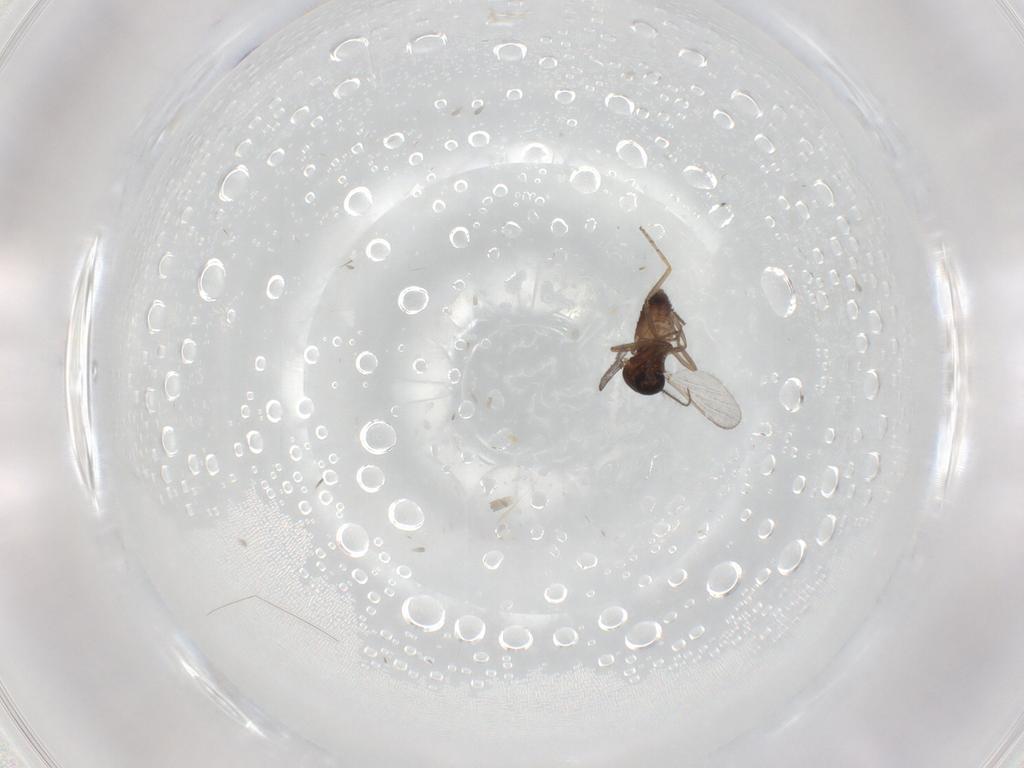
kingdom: Animalia
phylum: Arthropoda
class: Insecta
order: Diptera
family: Ceratopogonidae
